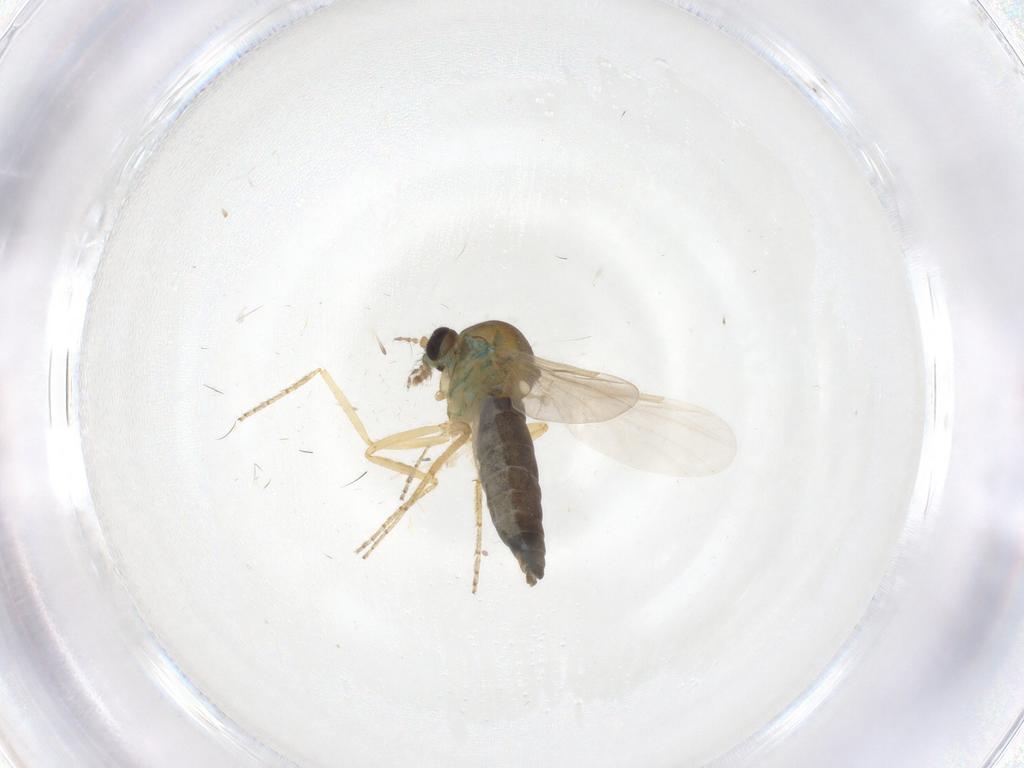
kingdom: Animalia
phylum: Arthropoda
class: Insecta
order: Diptera
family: Ceratopogonidae
